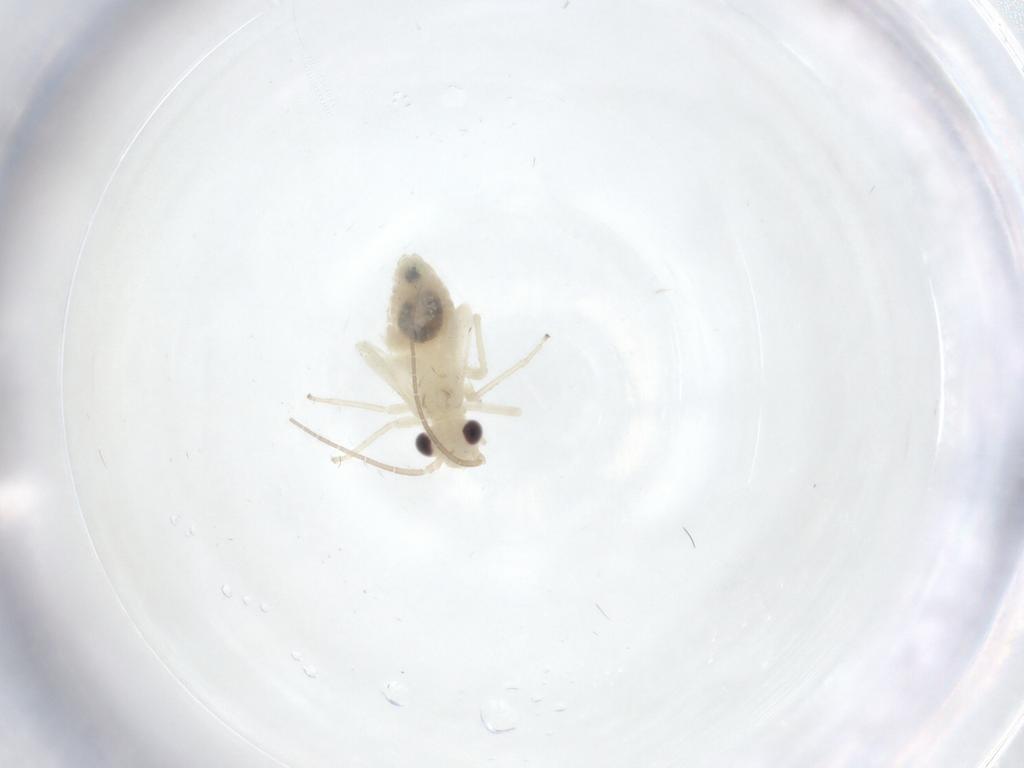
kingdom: Animalia
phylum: Arthropoda
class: Insecta
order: Psocodea
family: Caeciliusidae
